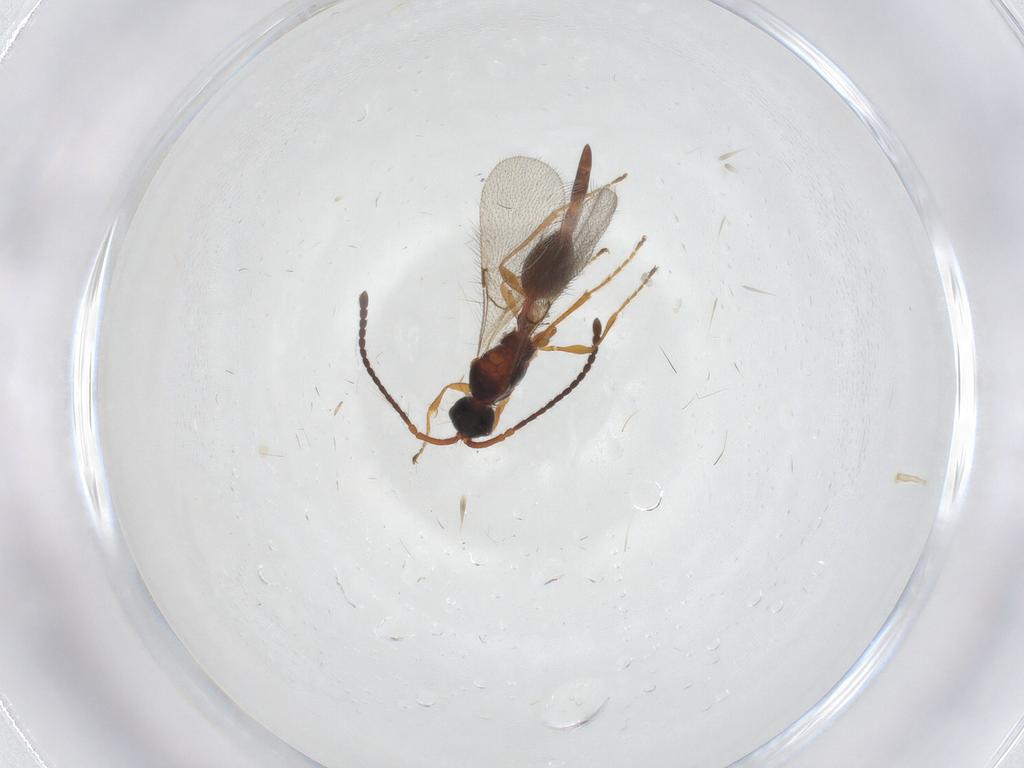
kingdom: Animalia
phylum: Arthropoda
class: Insecta
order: Hymenoptera
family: Diapriidae
